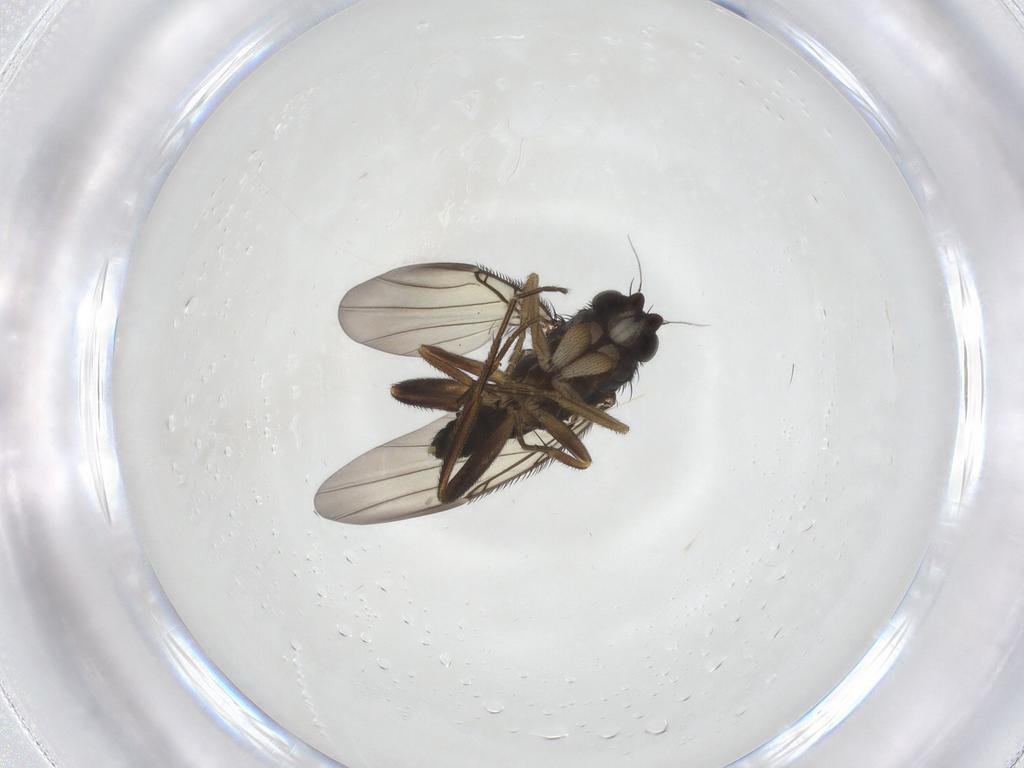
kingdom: Animalia
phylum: Arthropoda
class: Insecta
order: Diptera
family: Phoridae
